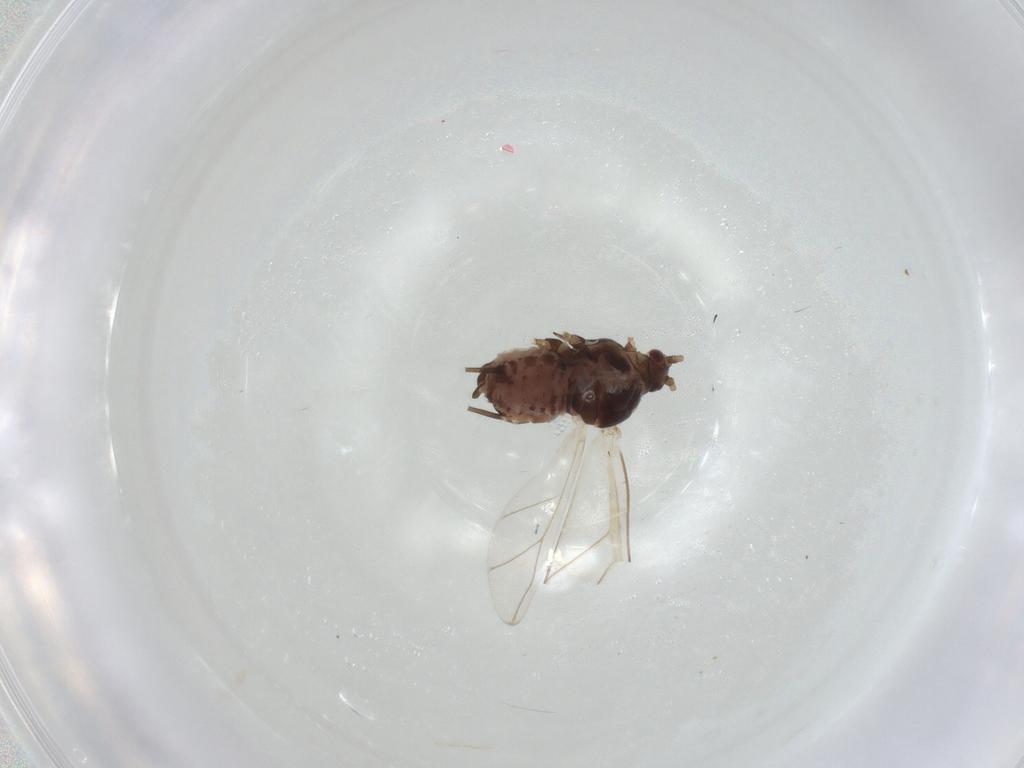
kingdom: Animalia
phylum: Arthropoda
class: Insecta
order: Hemiptera
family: Aphididae
